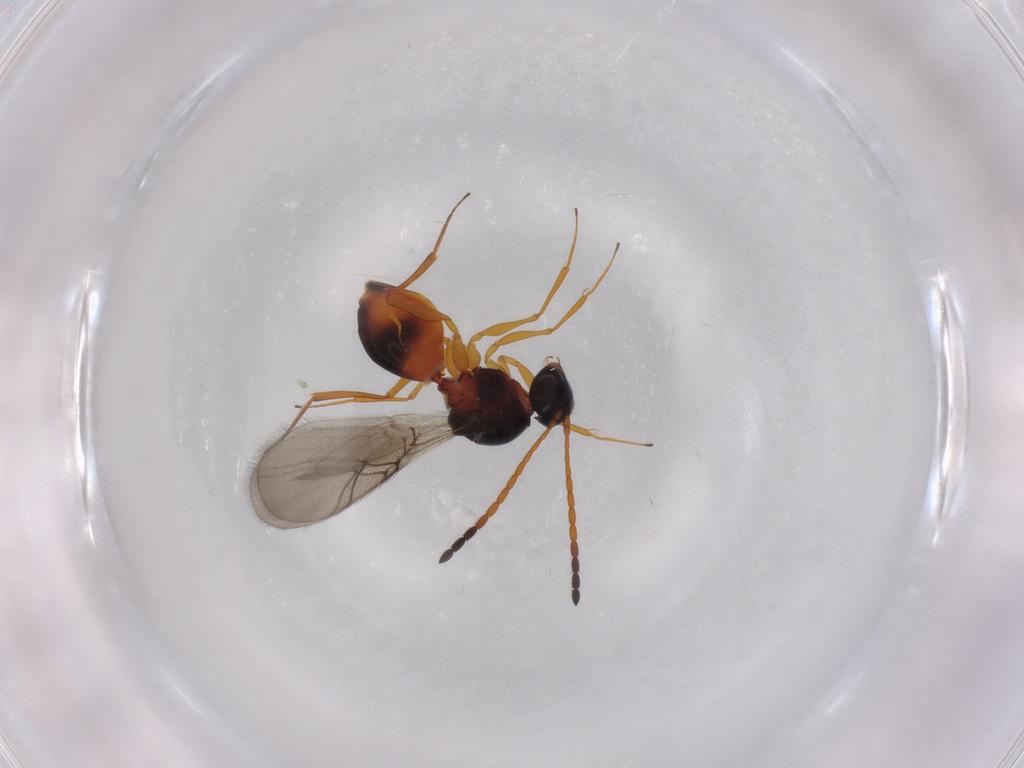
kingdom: Animalia
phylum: Arthropoda
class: Insecta
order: Hymenoptera
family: Figitidae
